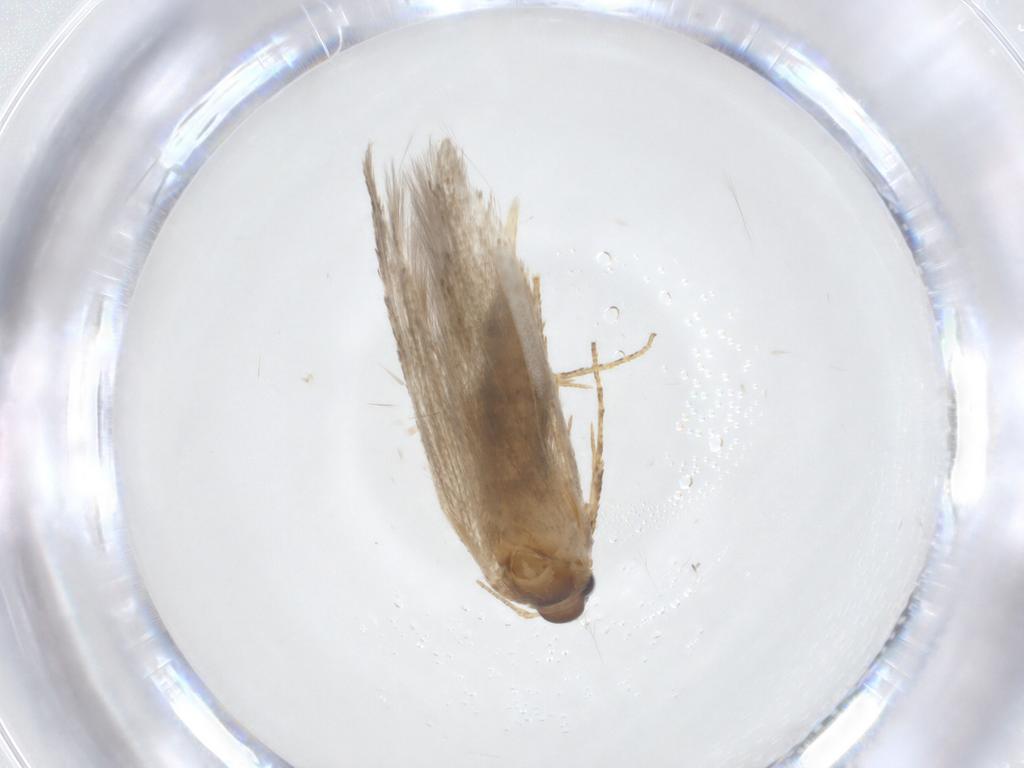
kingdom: Animalia
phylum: Arthropoda
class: Insecta
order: Lepidoptera
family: Blastobasidae
